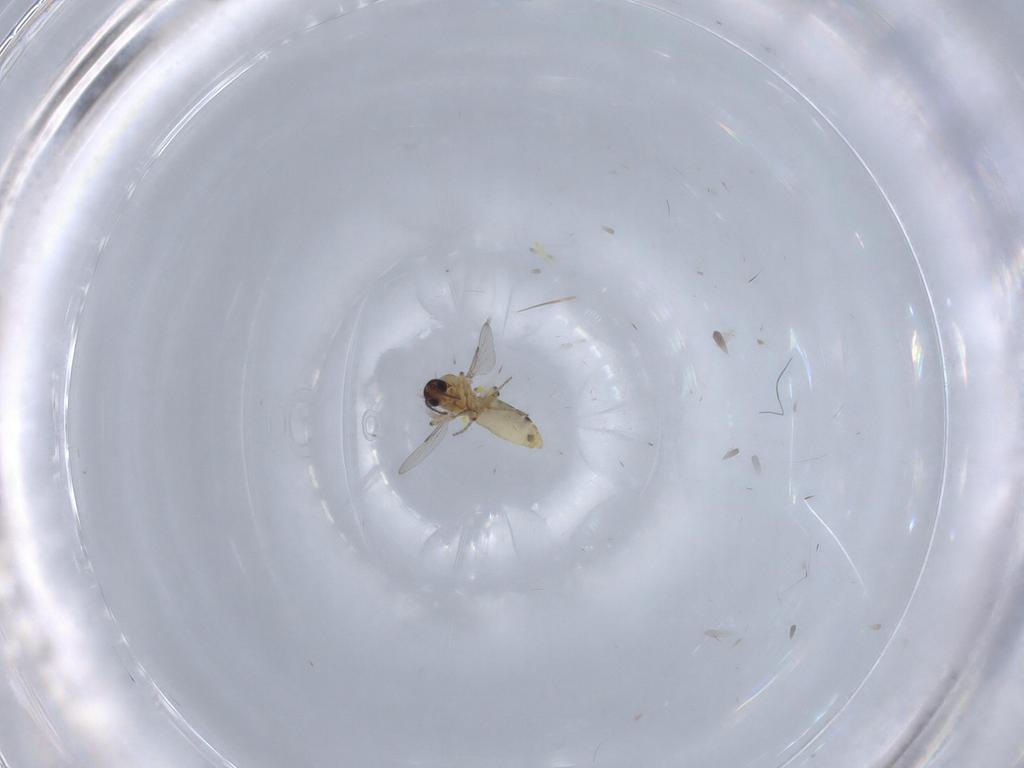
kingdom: Animalia
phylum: Arthropoda
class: Insecta
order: Diptera
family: Ceratopogonidae
